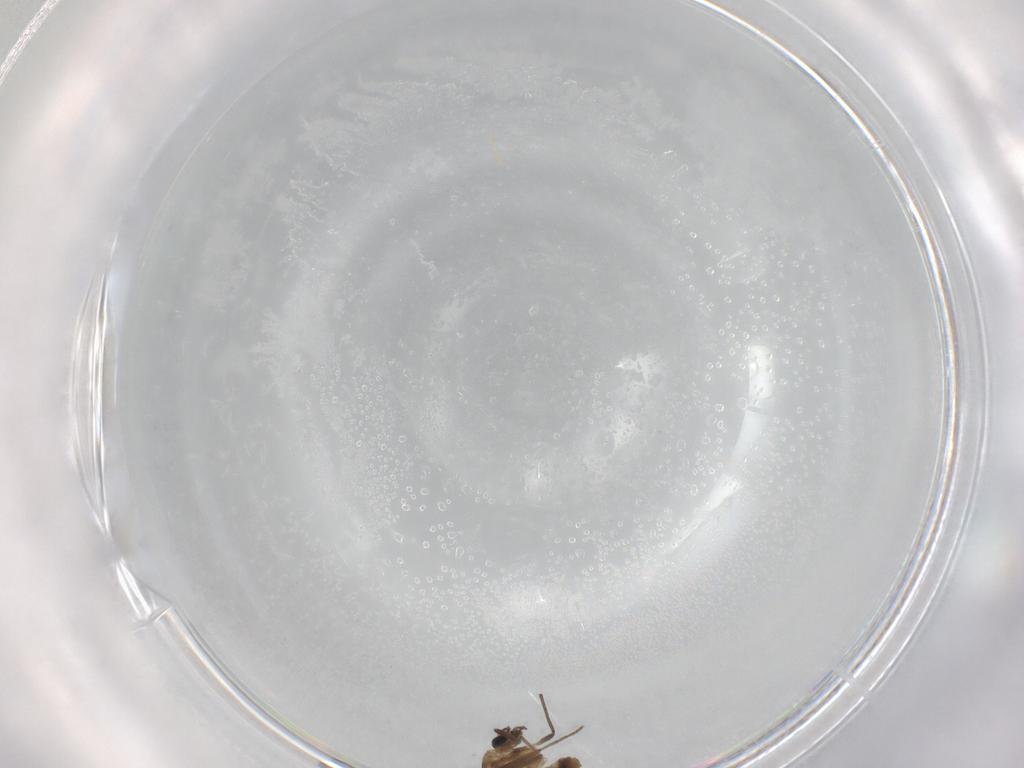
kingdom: Animalia
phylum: Arthropoda
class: Insecta
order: Diptera
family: Chironomidae
